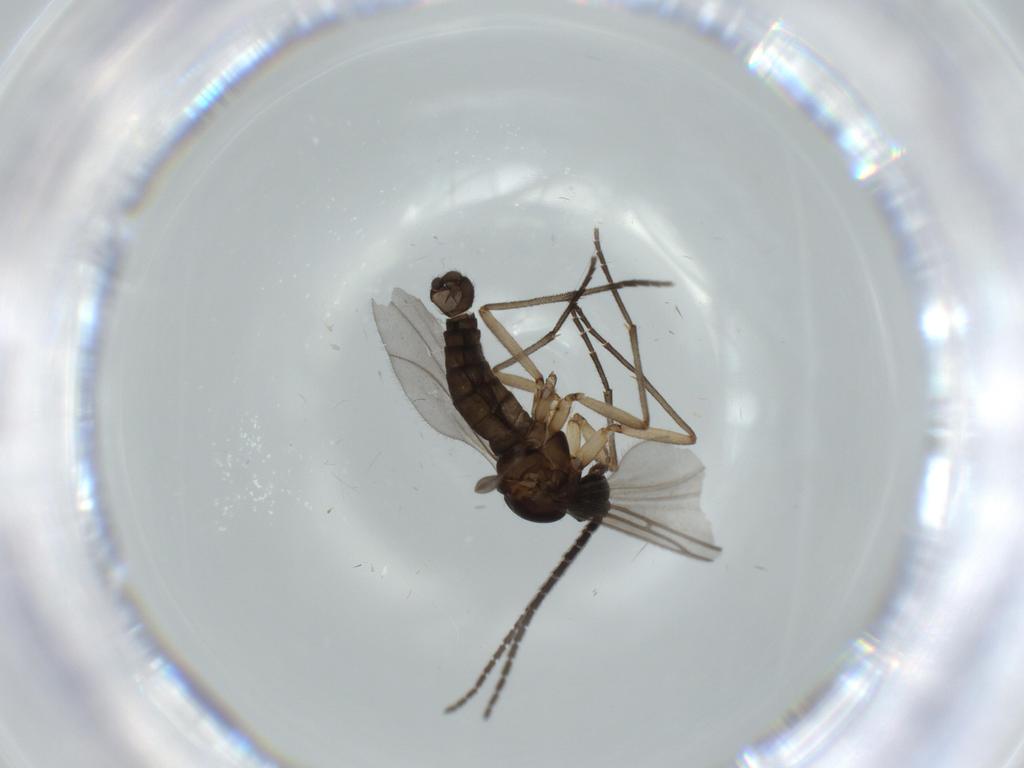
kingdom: Animalia
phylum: Arthropoda
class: Insecta
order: Diptera
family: Sciaridae
